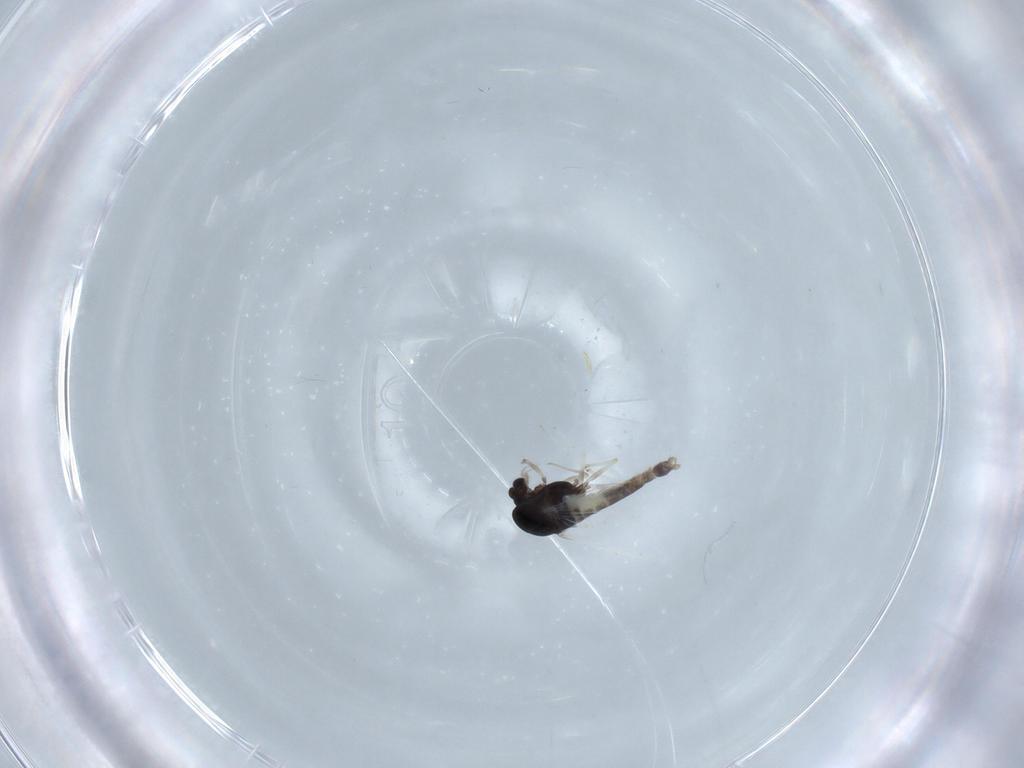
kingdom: Animalia
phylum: Arthropoda
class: Insecta
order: Diptera
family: Chironomidae
